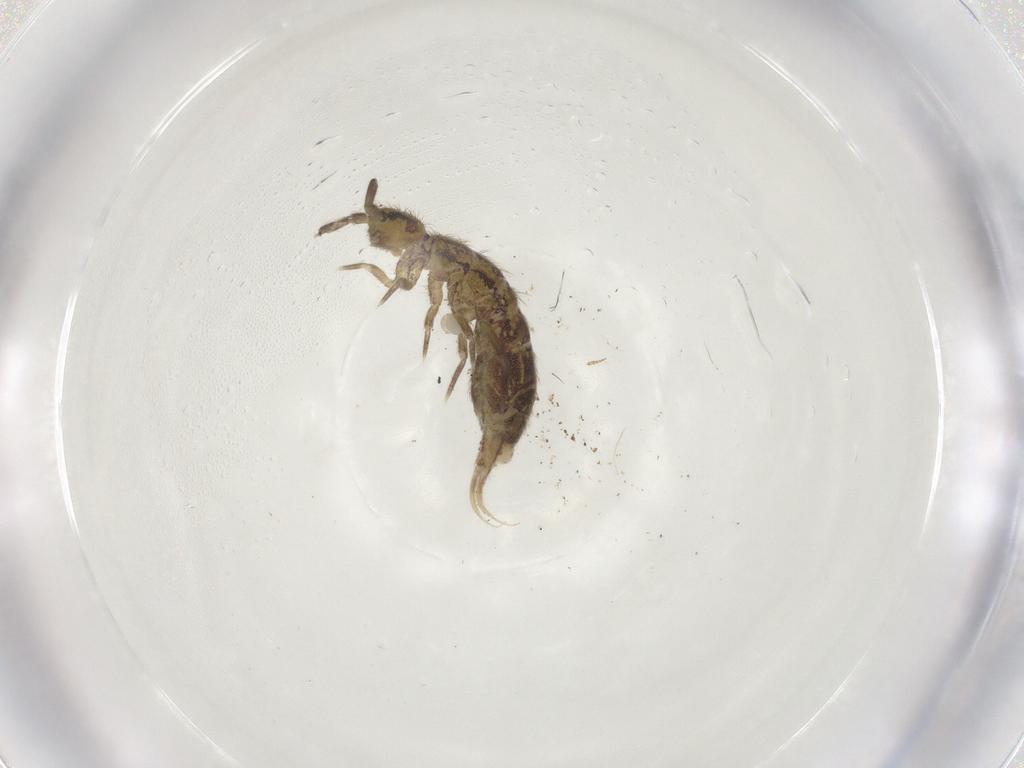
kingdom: Animalia
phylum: Arthropoda
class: Collembola
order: Entomobryomorpha
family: Isotomidae
